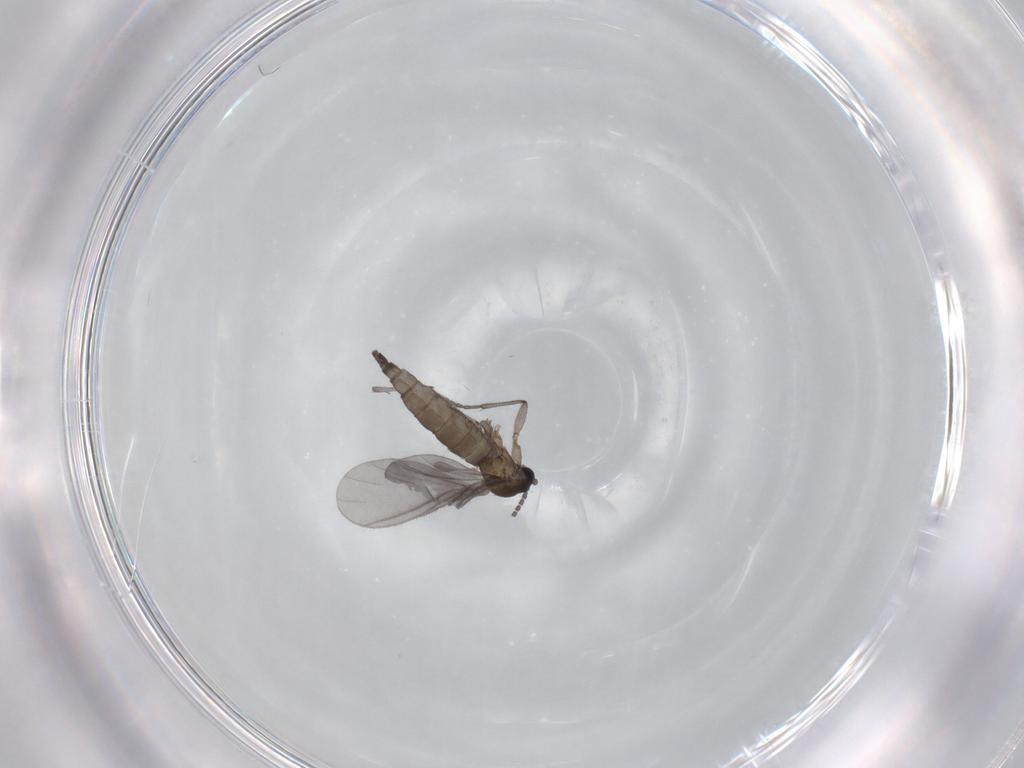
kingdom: Animalia
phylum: Arthropoda
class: Insecta
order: Diptera
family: Sciaridae
